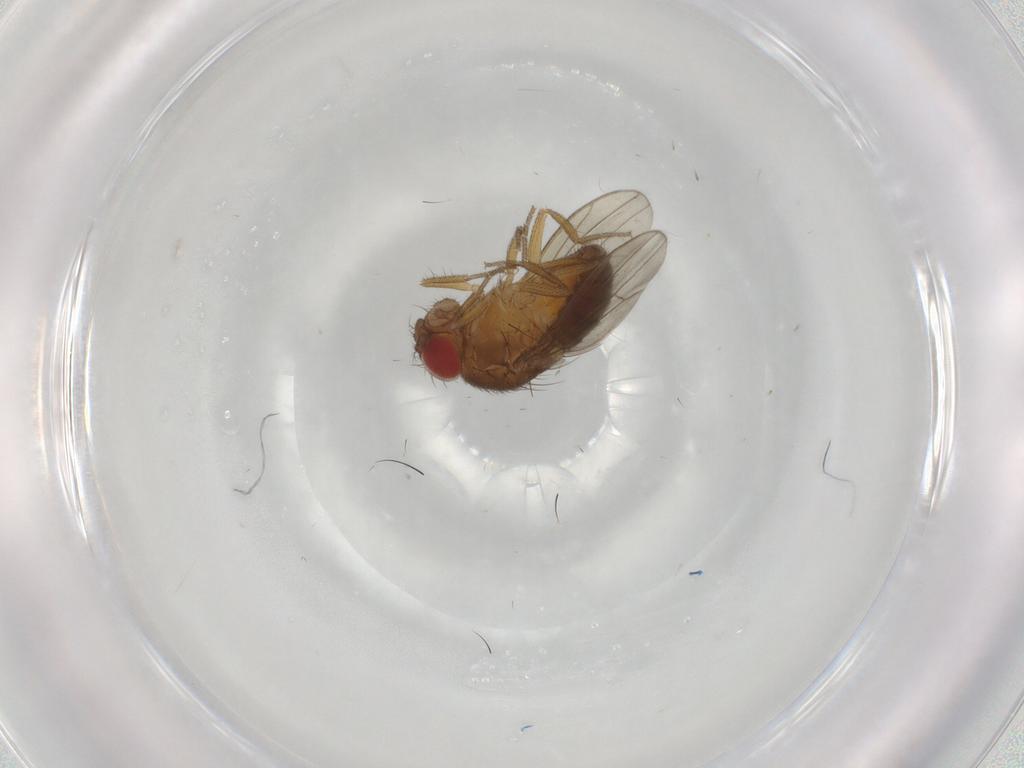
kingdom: Animalia
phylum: Arthropoda
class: Insecta
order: Diptera
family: Drosophilidae
